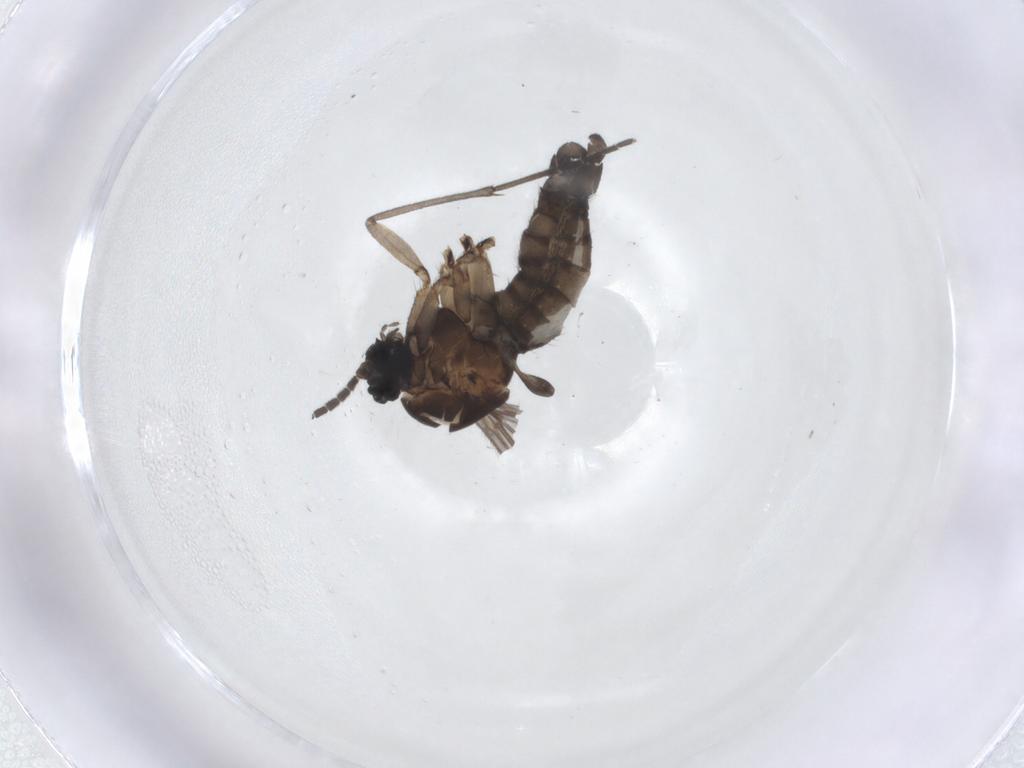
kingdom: Animalia
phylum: Arthropoda
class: Insecta
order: Diptera
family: Sciaridae
